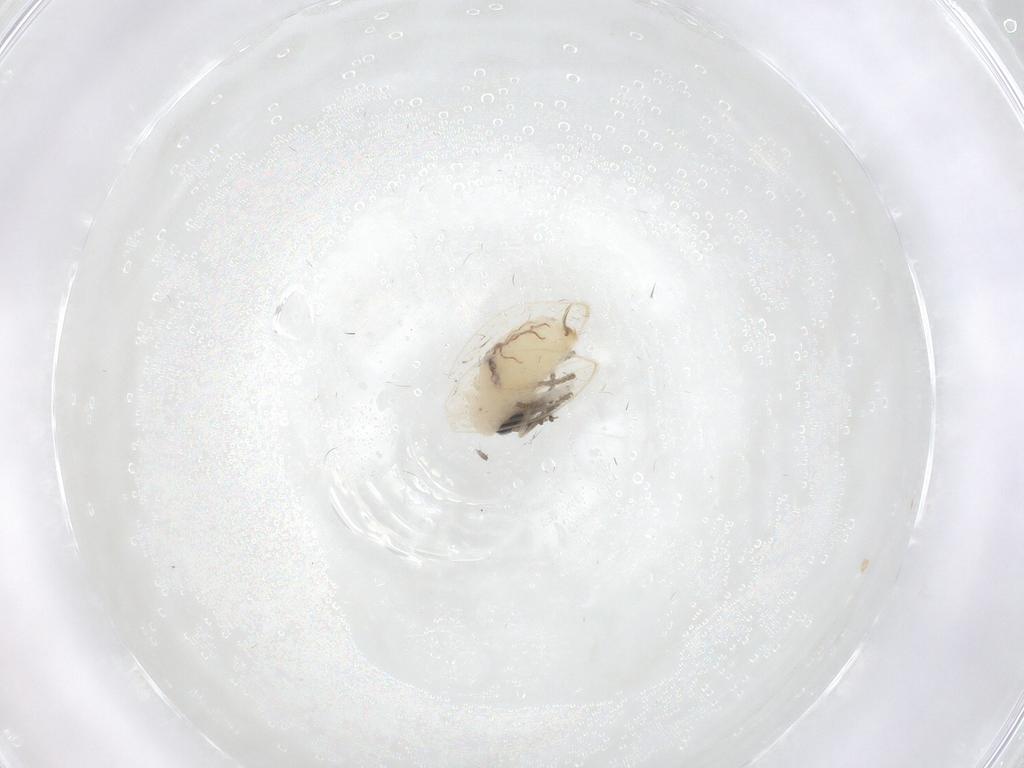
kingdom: Animalia
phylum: Arthropoda
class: Insecta
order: Diptera
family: Psychodidae
